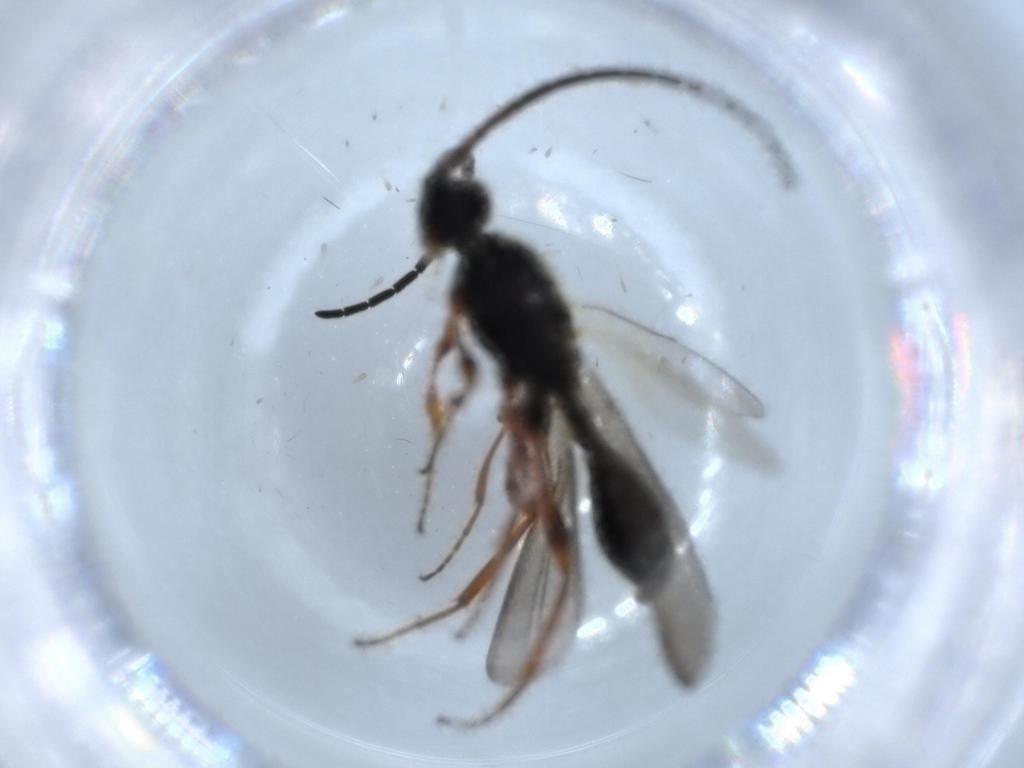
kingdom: Animalia
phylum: Arthropoda
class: Insecta
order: Hymenoptera
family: Diapriidae
